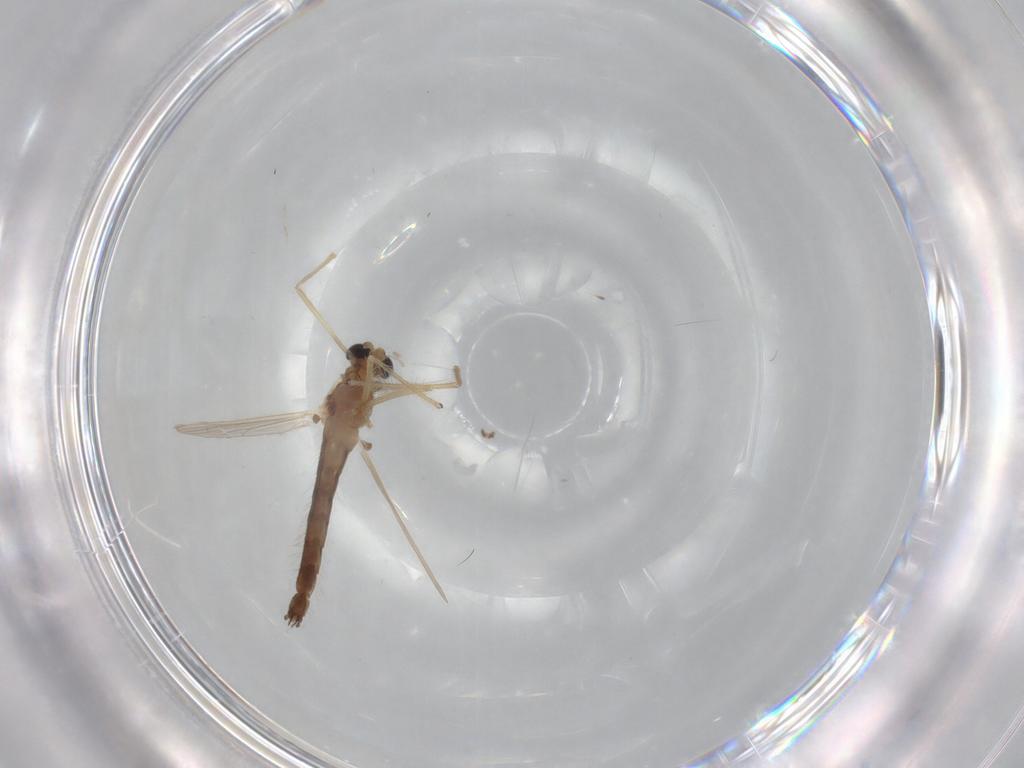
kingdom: Animalia
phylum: Arthropoda
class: Insecta
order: Diptera
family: Chironomidae
